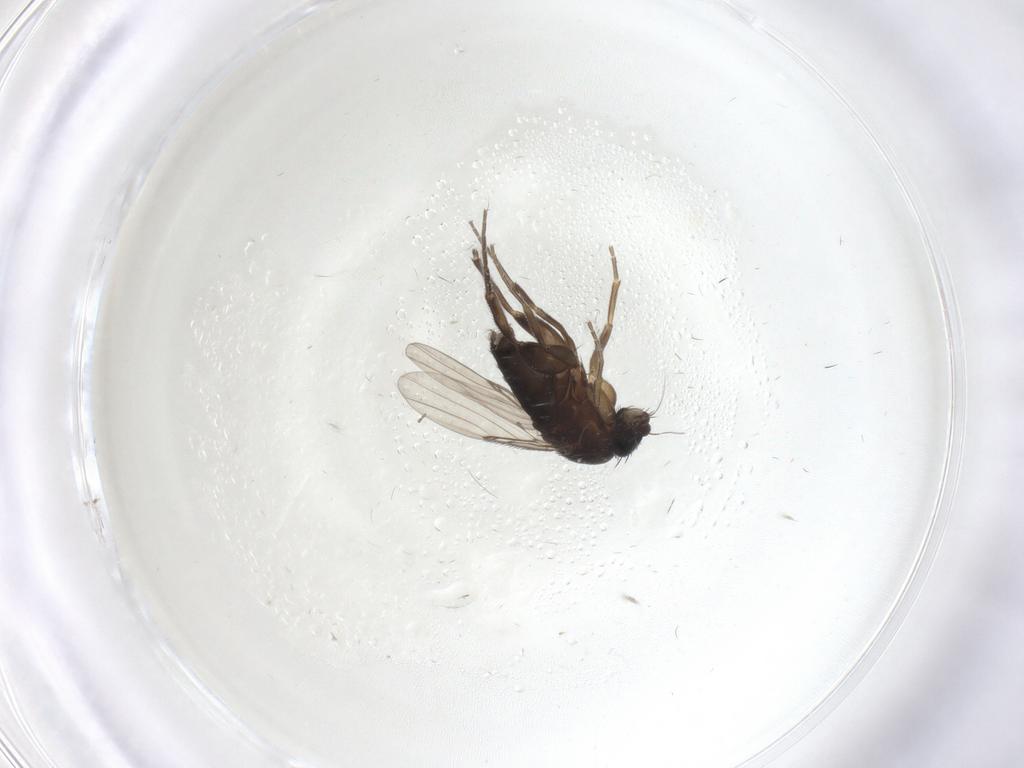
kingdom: Animalia
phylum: Arthropoda
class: Insecta
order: Diptera
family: Phoridae
